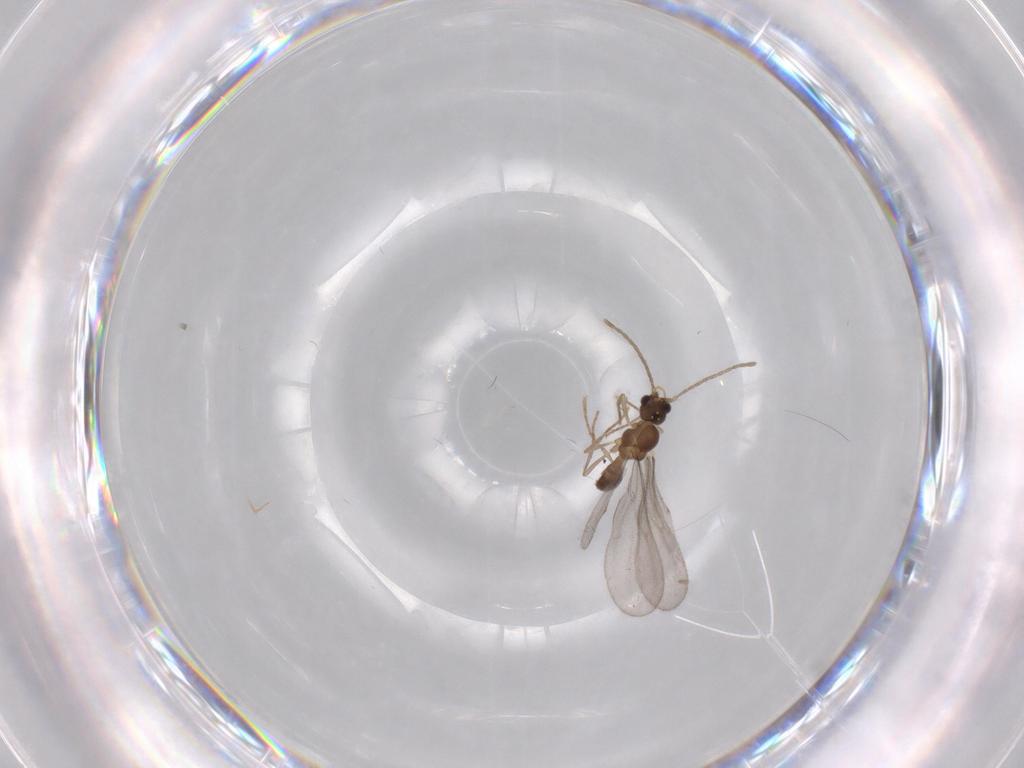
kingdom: Animalia
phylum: Arthropoda
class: Insecta
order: Hymenoptera
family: Formicidae
